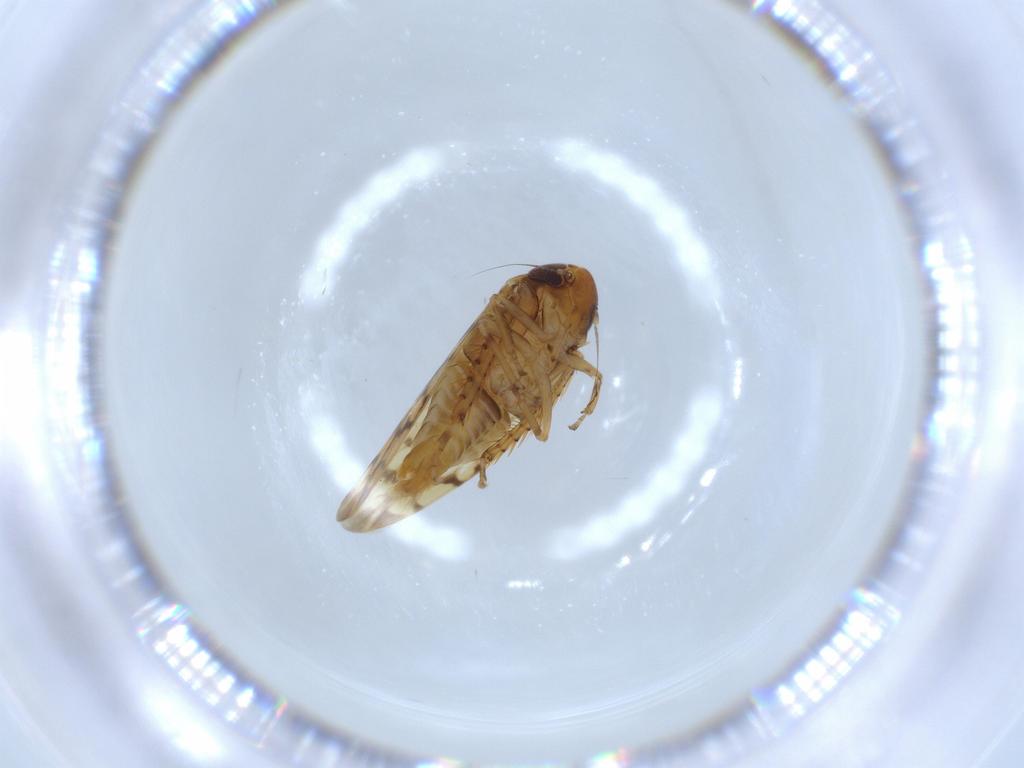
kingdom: Animalia
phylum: Arthropoda
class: Insecta
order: Hemiptera
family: Cicadellidae
